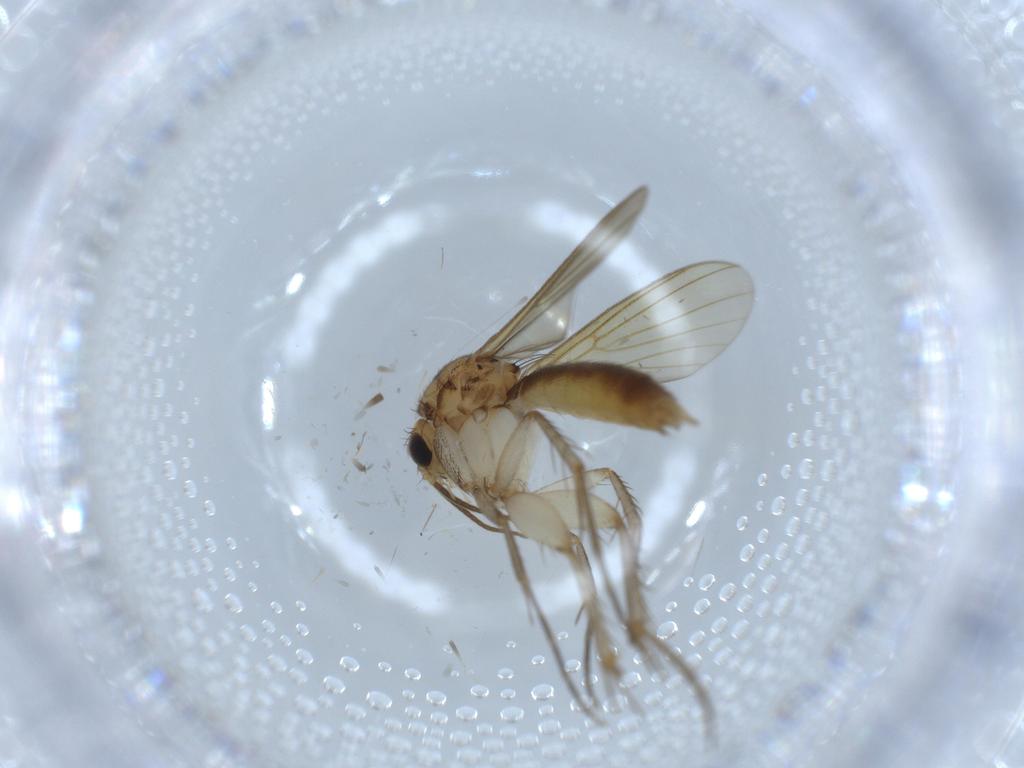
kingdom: Animalia
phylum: Arthropoda
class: Insecta
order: Diptera
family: Mycetophilidae
